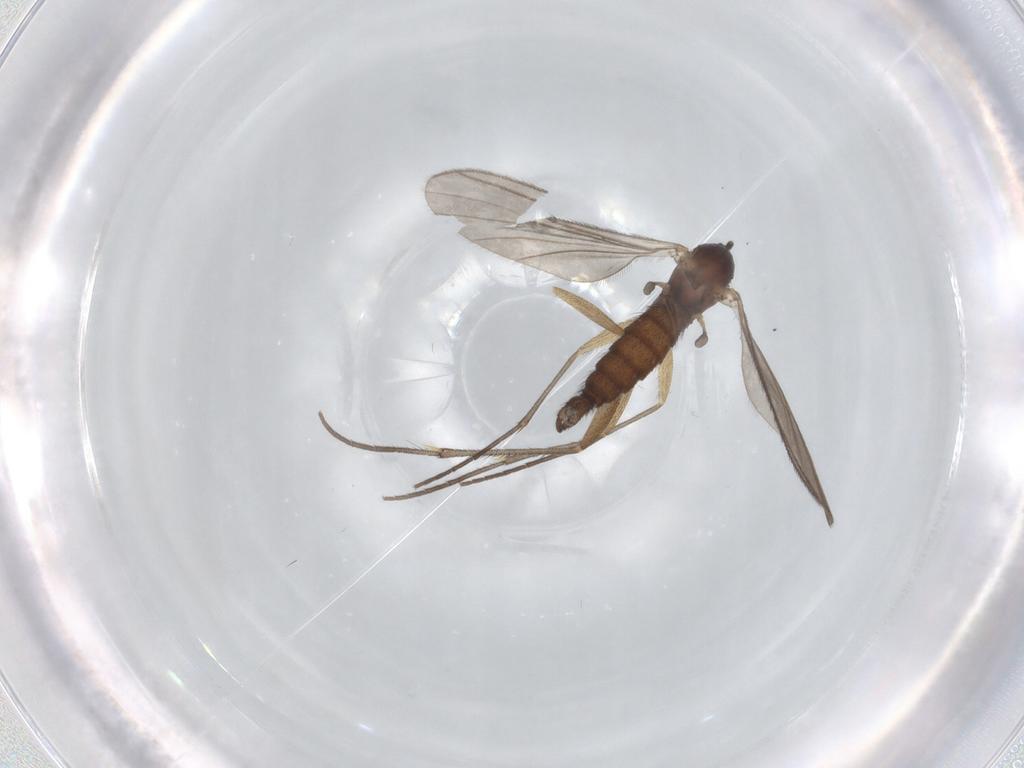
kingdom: Animalia
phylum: Arthropoda
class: Insecta
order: Diptera
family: Sciaridae
